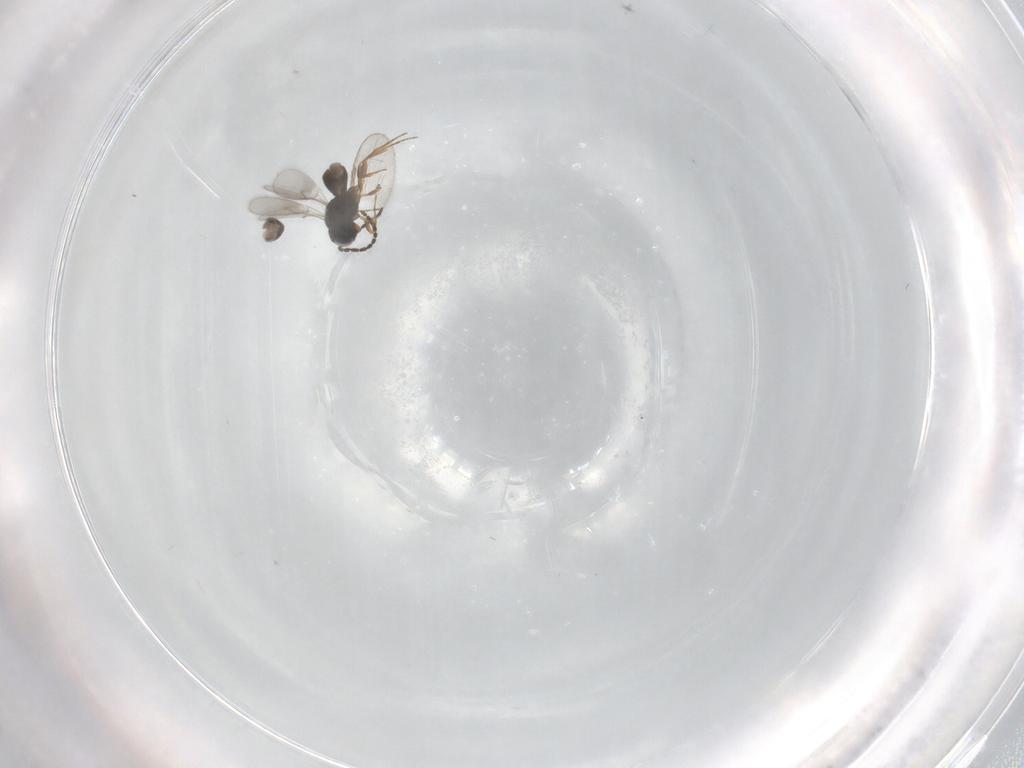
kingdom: Animalia
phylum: Arthropoda
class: Insecta
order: Hymenoptera
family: Scelionidae
